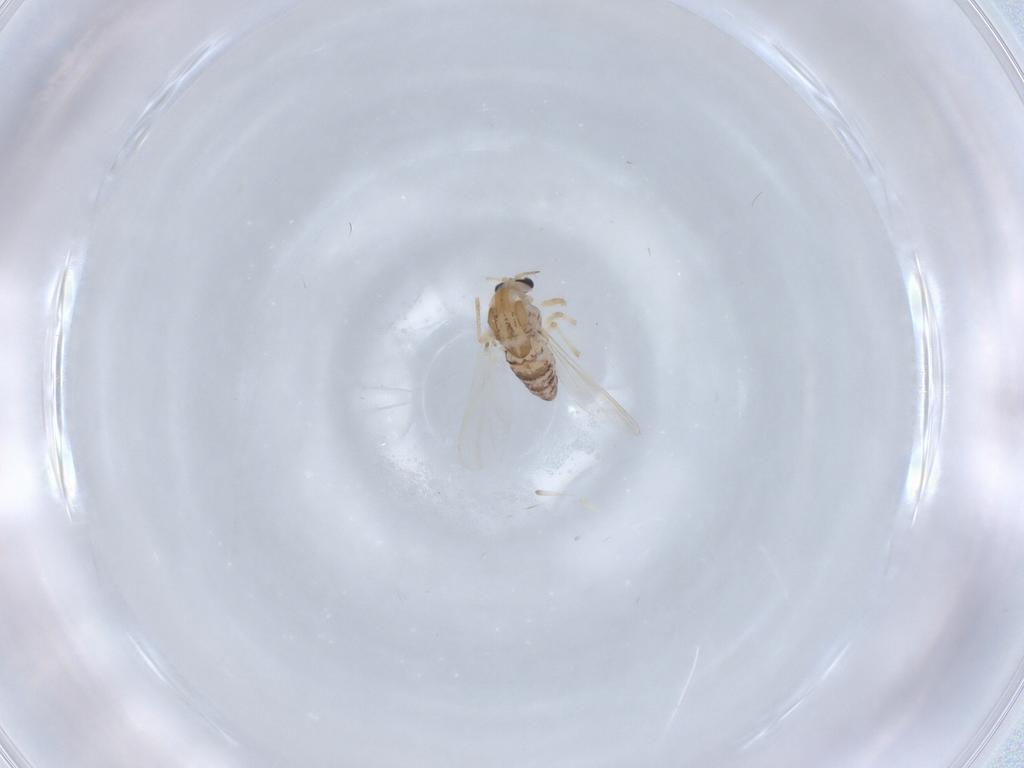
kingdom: Animalia
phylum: Arthropoda
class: Insecta
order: Diptera
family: Chironomidae
